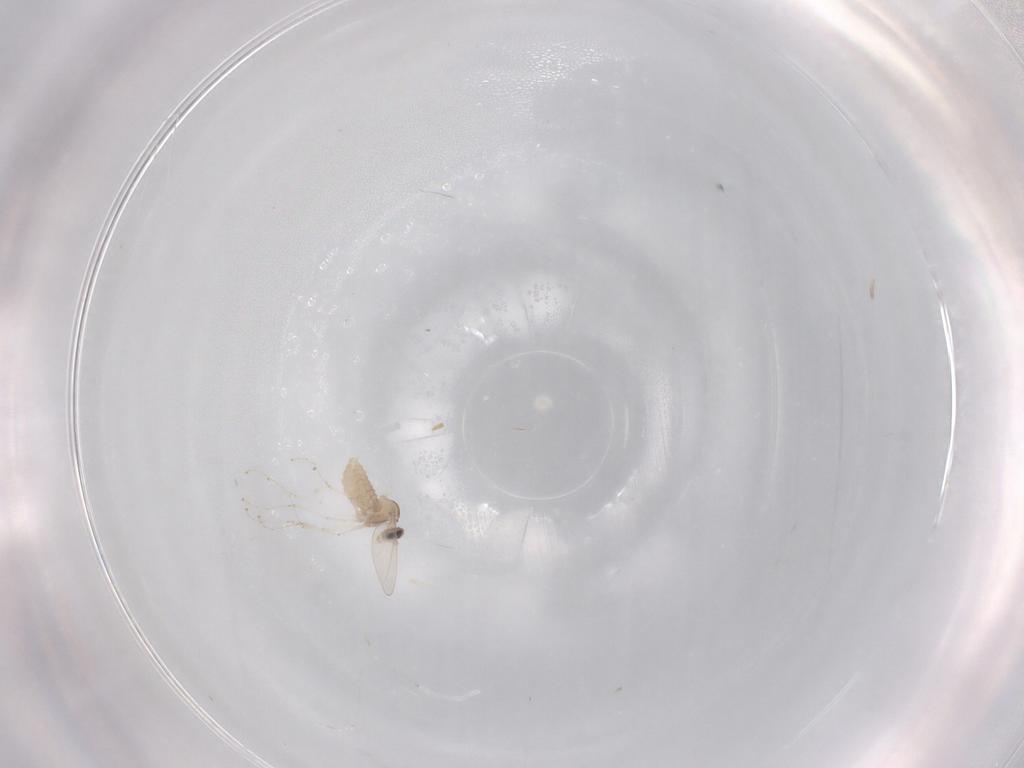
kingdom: Animalia
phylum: Arthropoda
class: Insecta
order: Diptera
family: Cecidomyiidae
